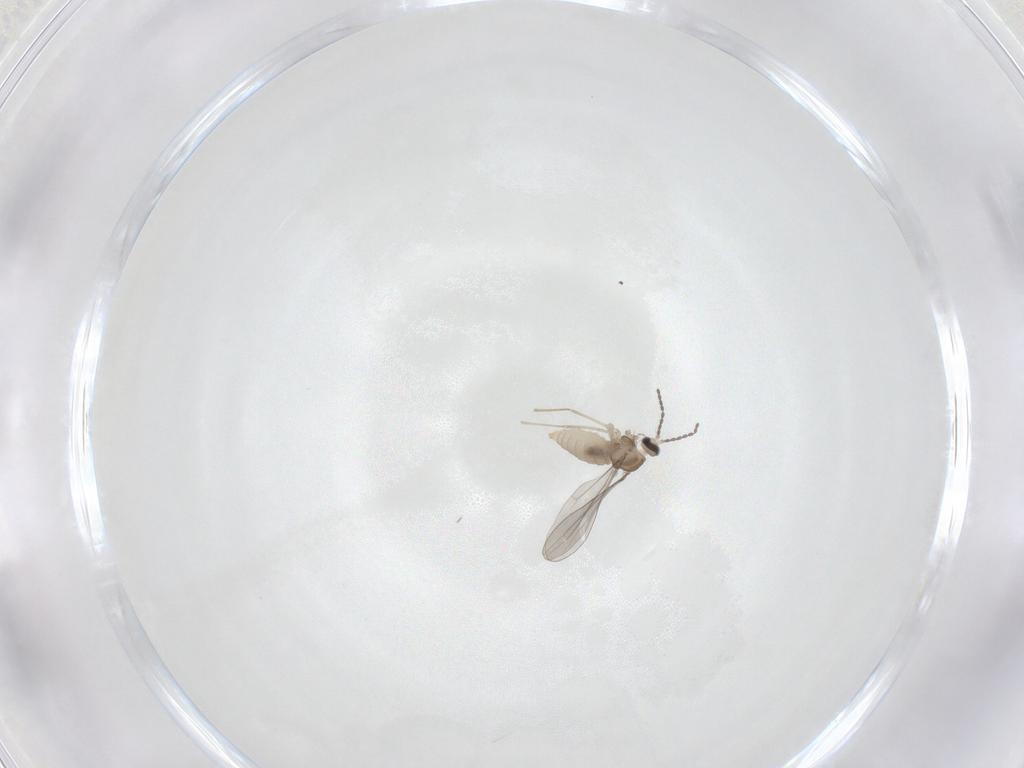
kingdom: Animalia
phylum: Arthropoda
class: Insecta
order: Diptera
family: Cecidomyiidae
